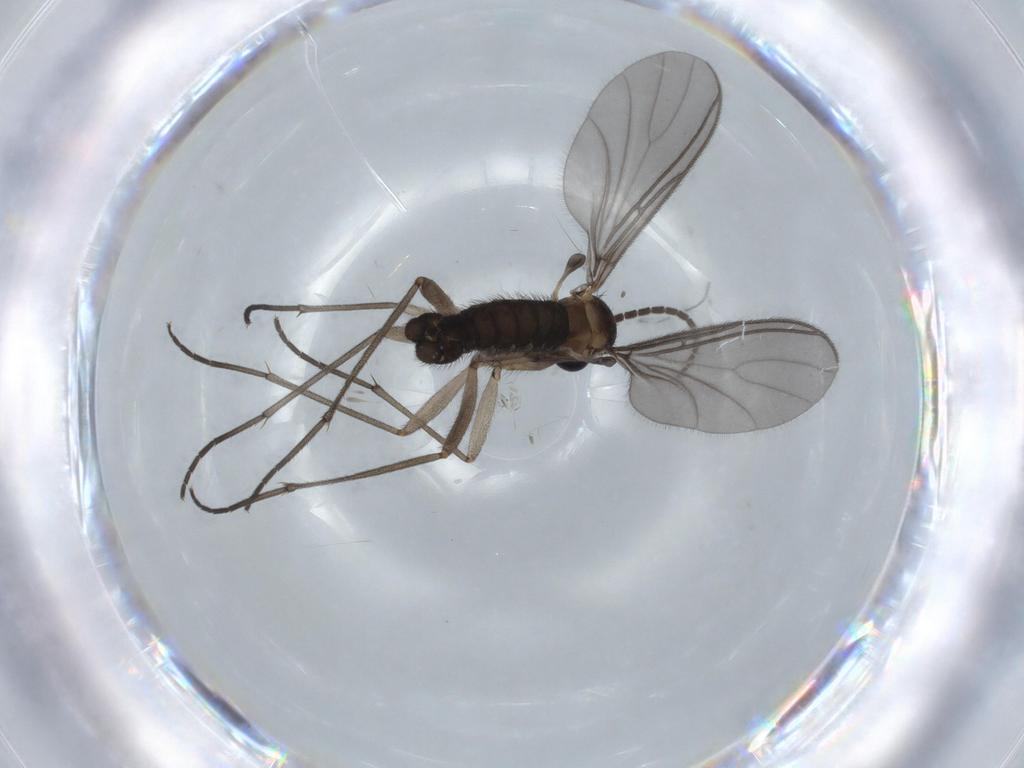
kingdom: Animalia
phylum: Arthropoda
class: Insecta
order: Diptera
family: Sciaridae
